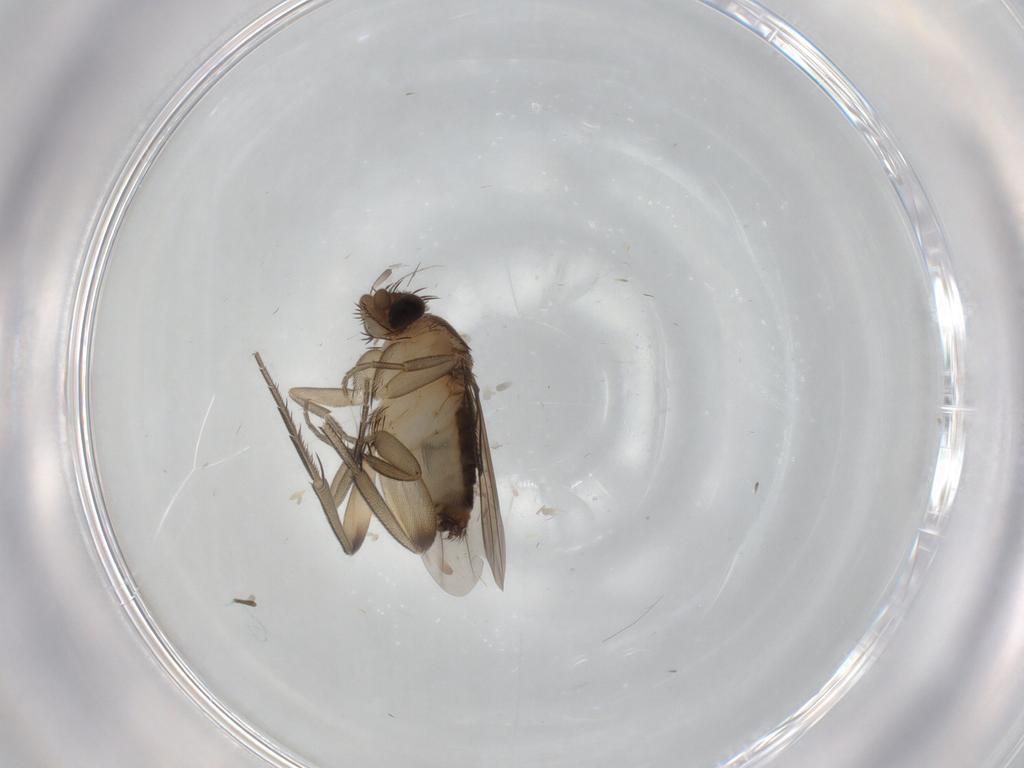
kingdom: Animalia
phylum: Arthropoda
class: Insecta
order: Diptera
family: Phoridae
